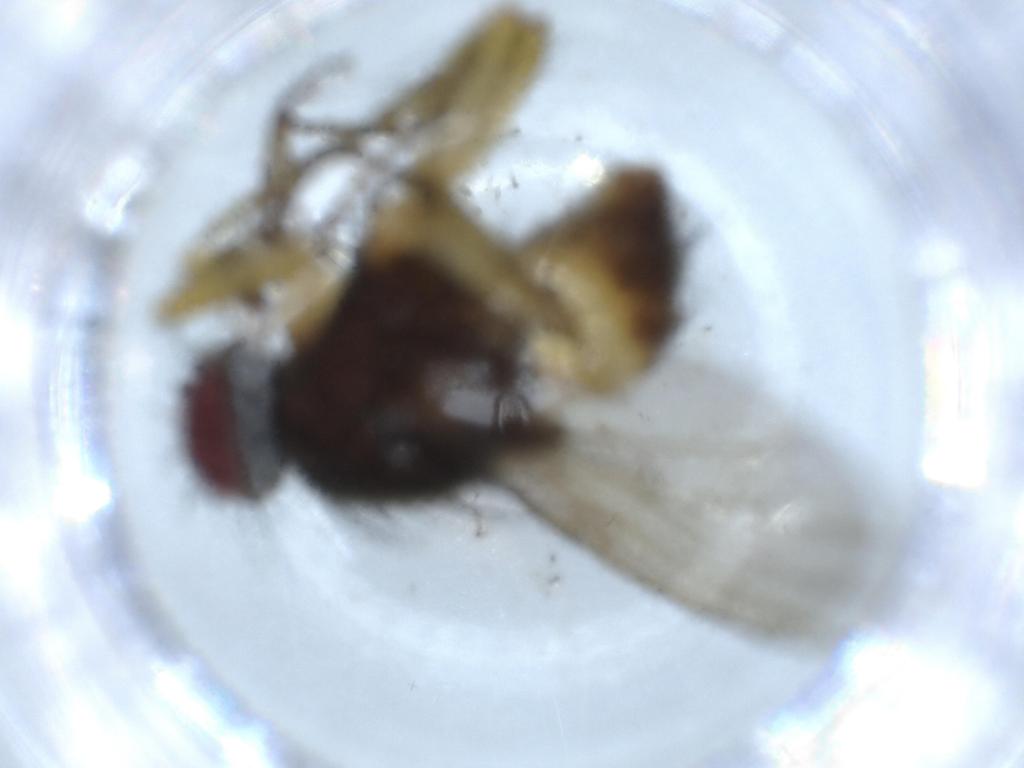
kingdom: Animalia
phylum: Arthropoda
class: Insecta
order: Diptera
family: Muscidae
